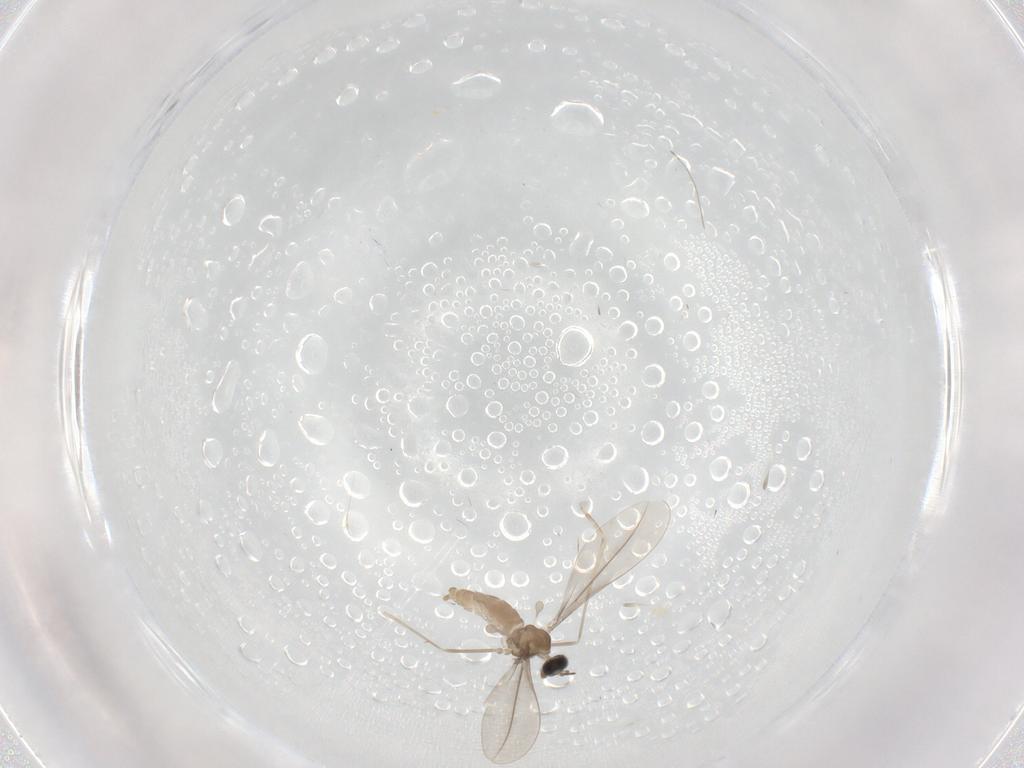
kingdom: Animalia
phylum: Arthropoda
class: Insecta
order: Diptera
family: Cecidomyiidae
